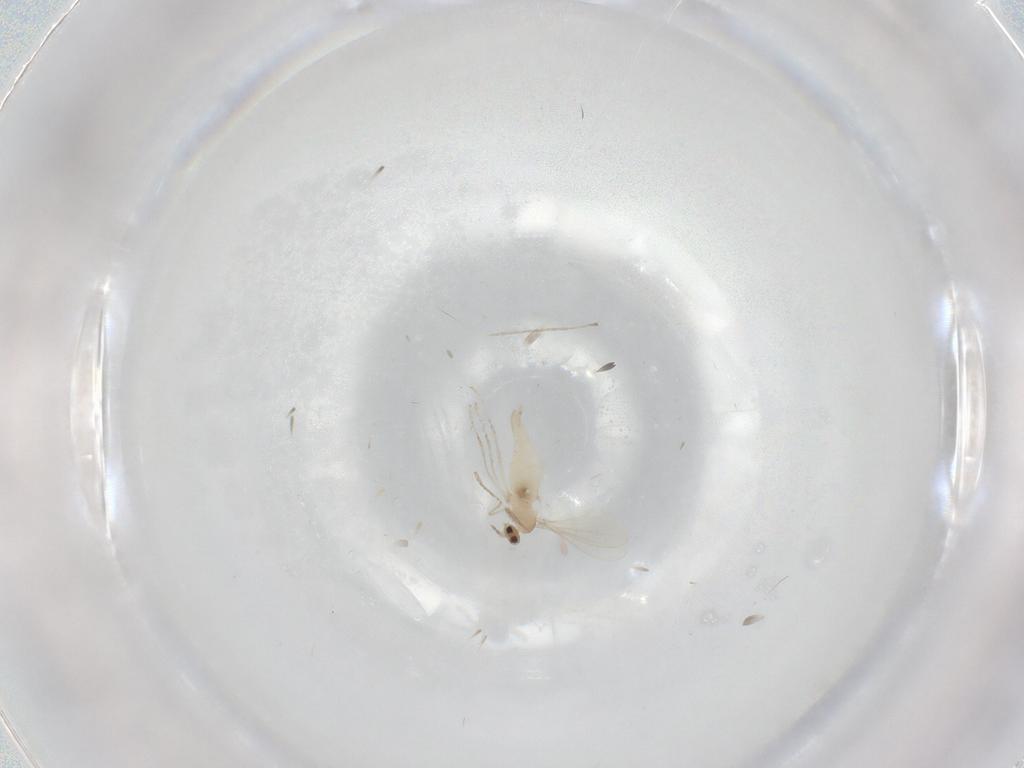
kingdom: Animalia
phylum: Arthropoda
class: Insecta
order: Diptera
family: Cecidomyiidae
